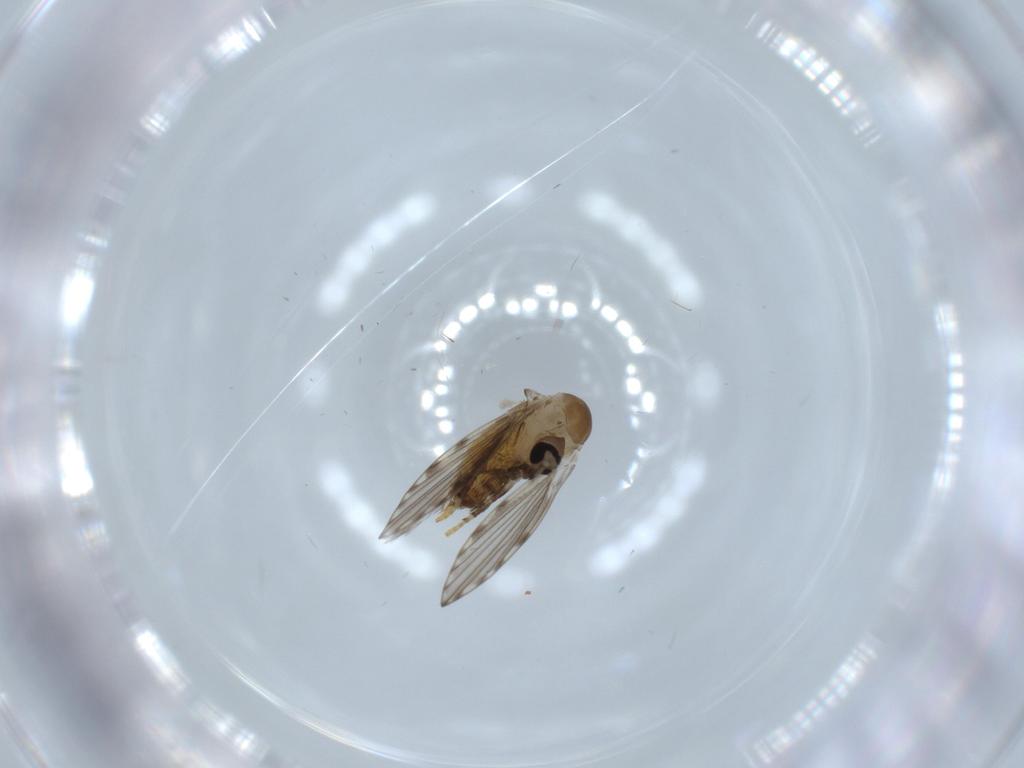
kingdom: Animalia
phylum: Arthropoda
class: Insecta
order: Diptera
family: Psychodidae
